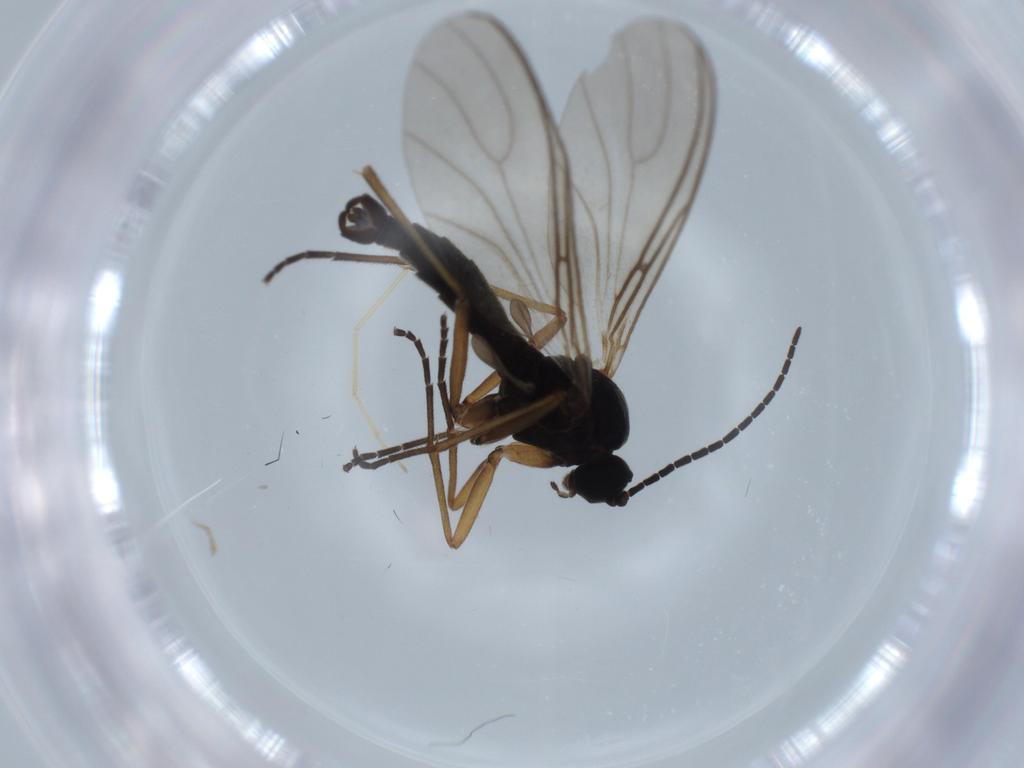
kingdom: Animalia
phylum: Arthropoda
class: Insecta
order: Diptera
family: Sciaridae
